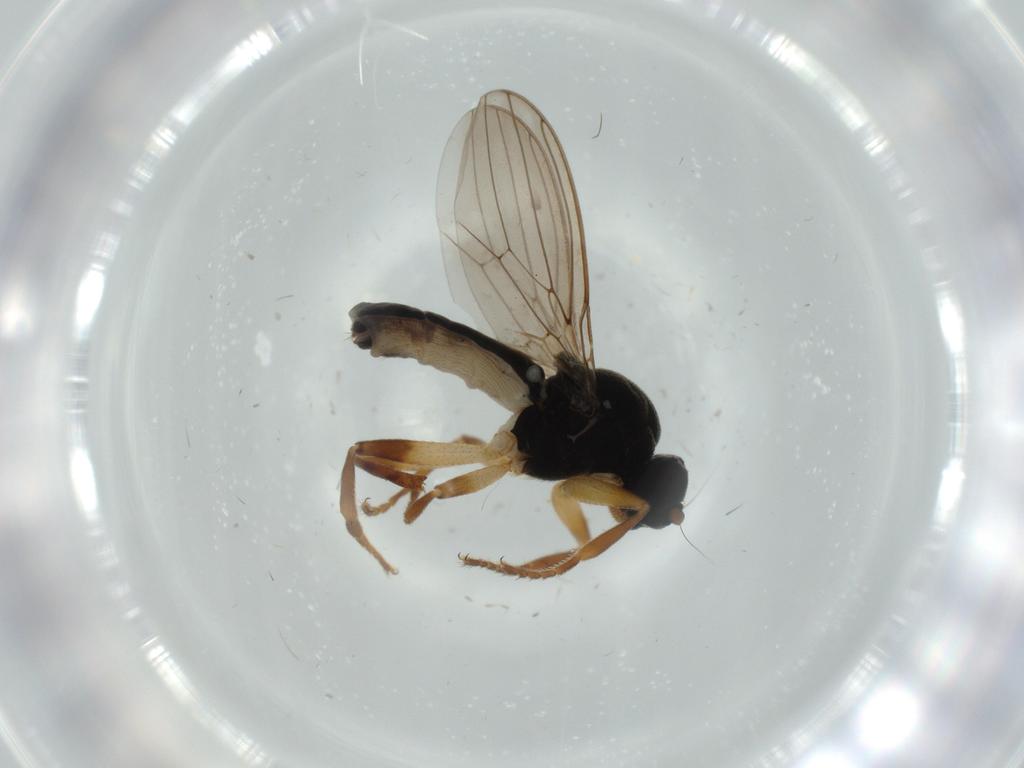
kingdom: Animalia
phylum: Arthropoda
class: Insecta
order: Diptera
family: Sphaeroceridae
